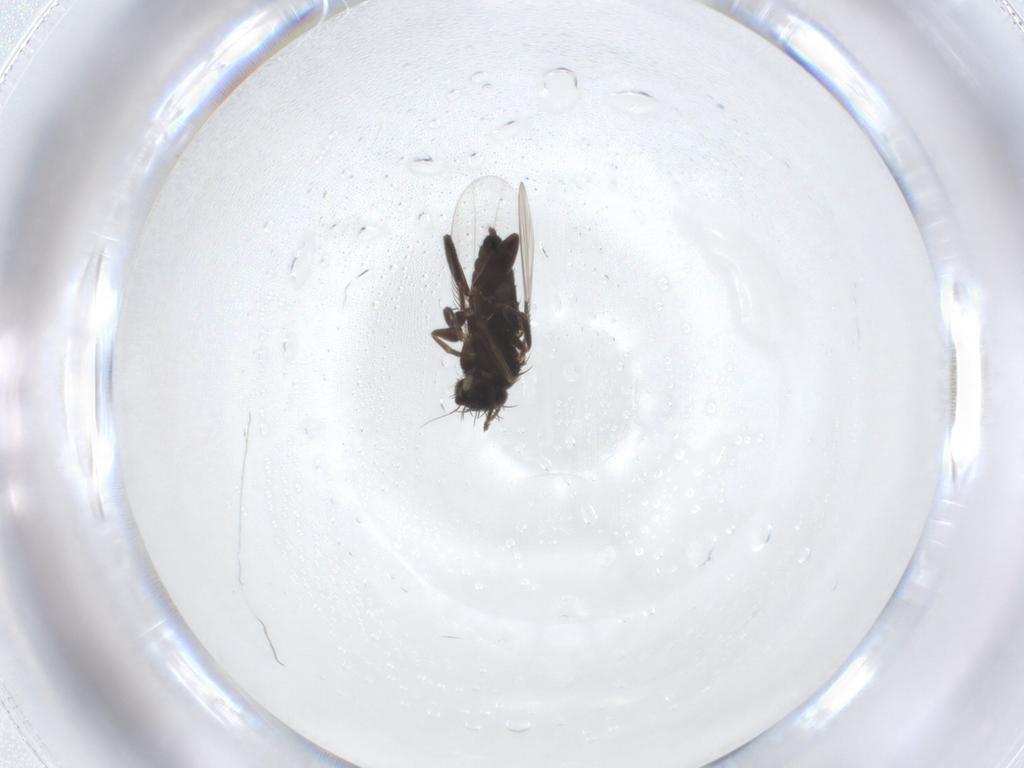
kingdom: Animalia
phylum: Arthropoda
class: Insecta
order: Diptera
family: Phoridae
